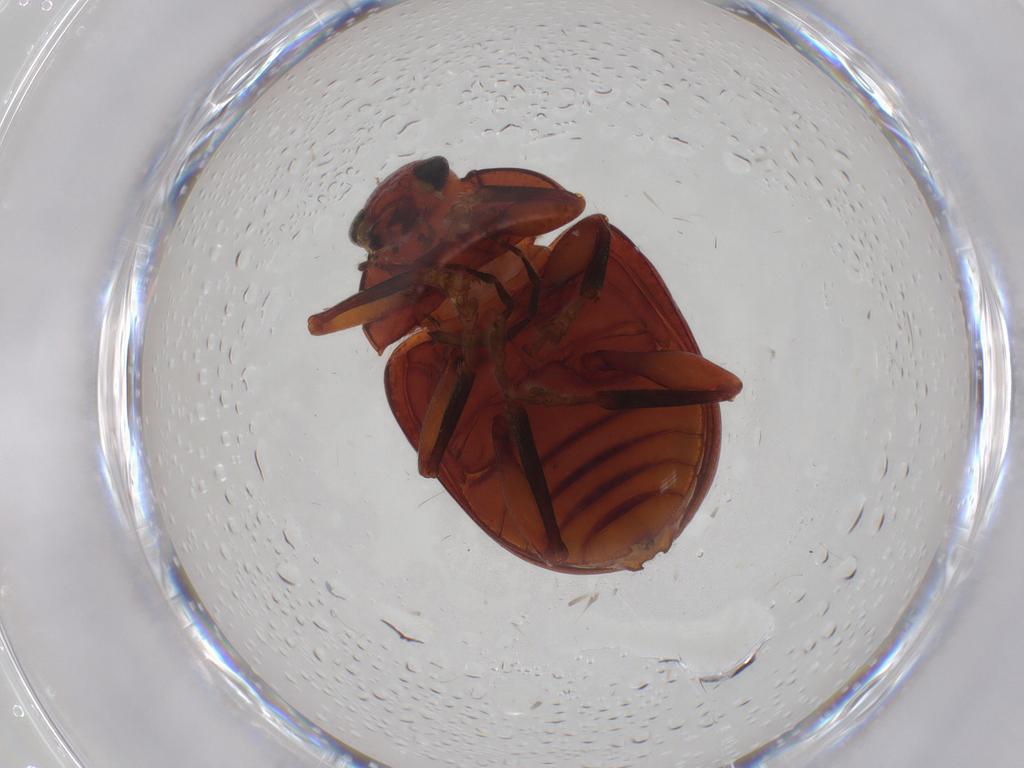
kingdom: Animalia
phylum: Arthropoda
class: Insecta
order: Coleoptera
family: Chrysomelidae
